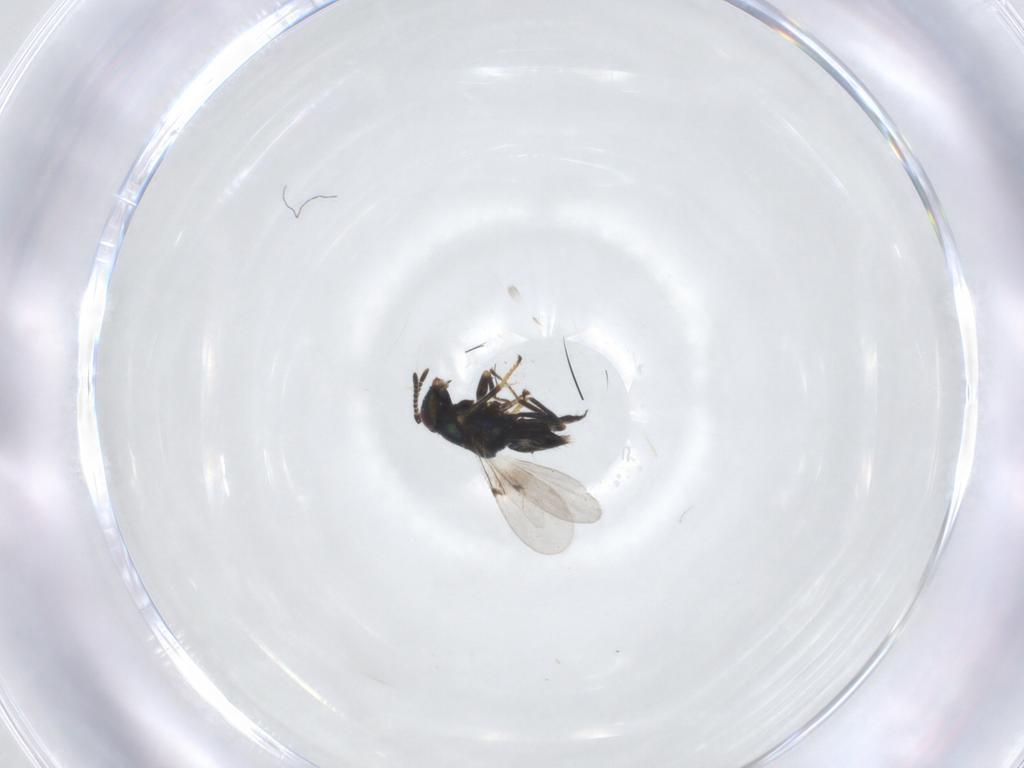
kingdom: Animalia
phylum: Arthropoda
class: Insecta
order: Hymenoptera
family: Encyrtidae
